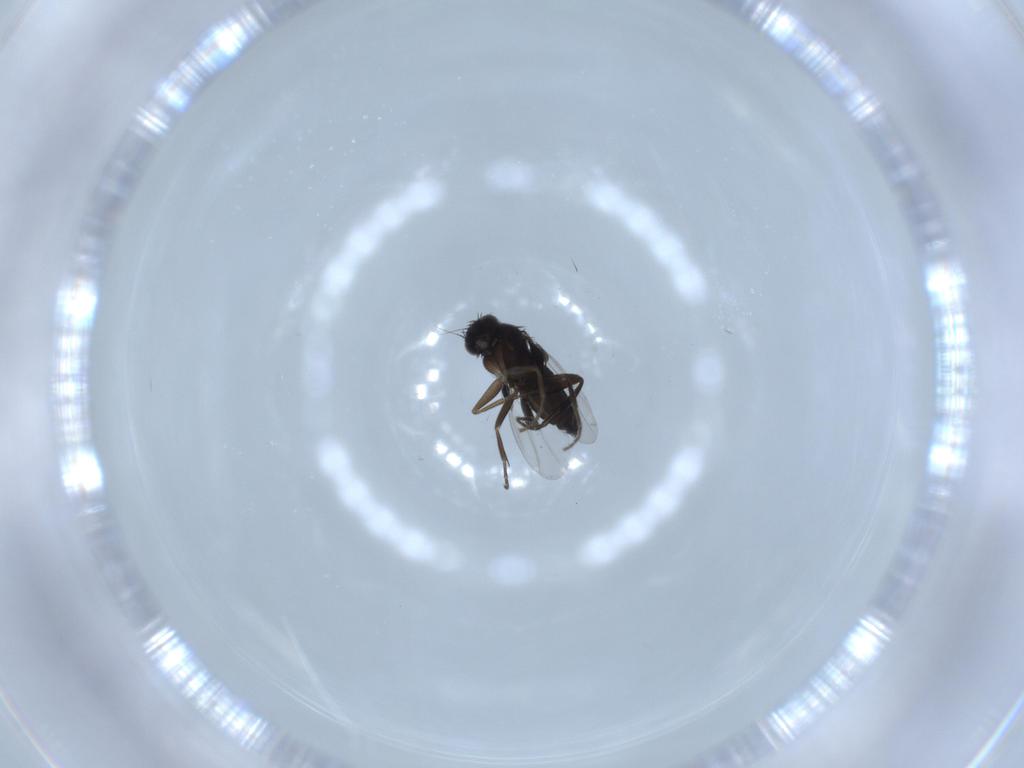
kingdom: Animalia
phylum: Arthropoda
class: Insecta
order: Diptera
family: Phoridae
